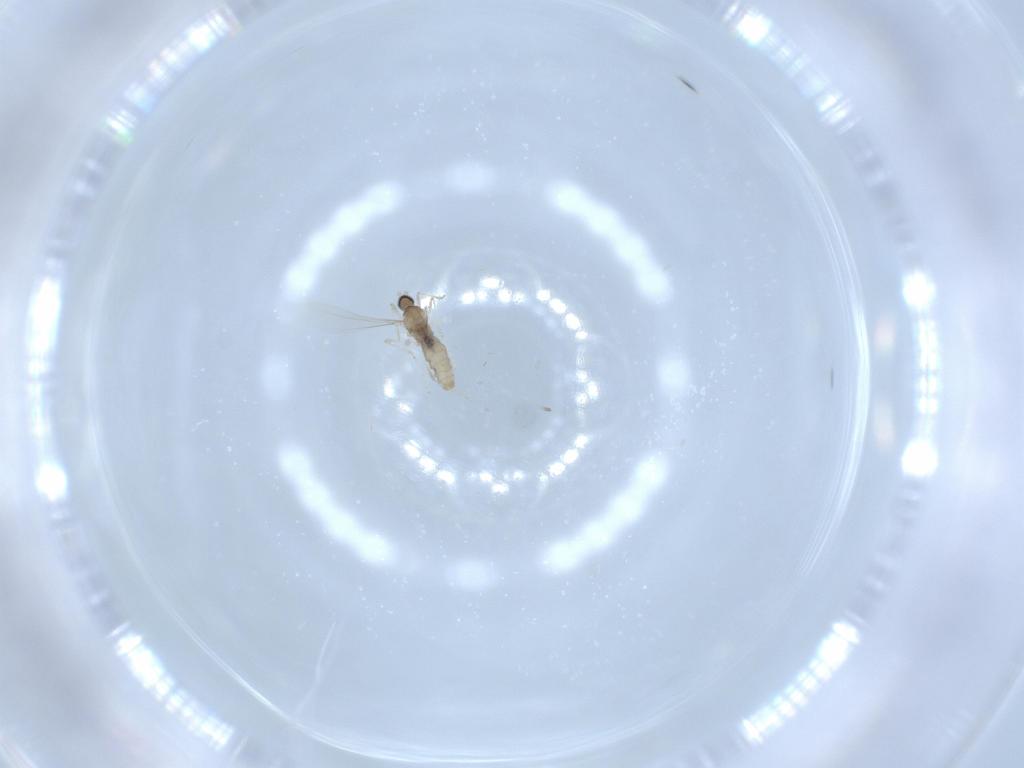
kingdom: Animalia
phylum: Arthropoda
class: Insecta
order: Diptera
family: Cecidomyiidae
